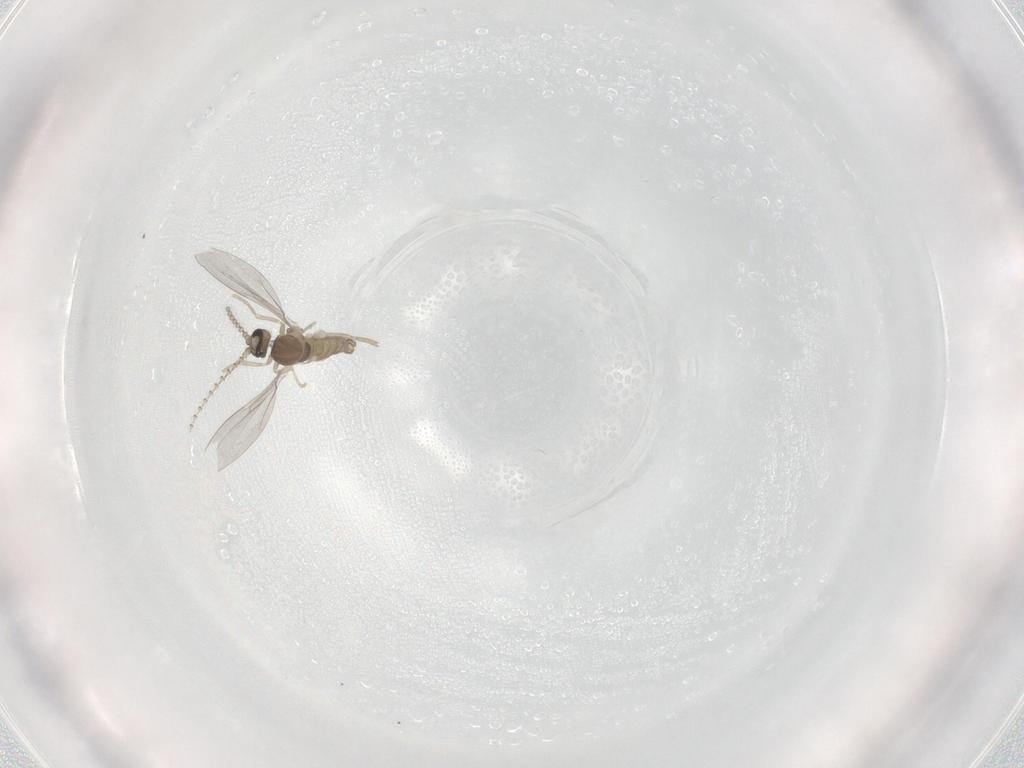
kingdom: Animalia
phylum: Arthropoda
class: Insecta
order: Diptera
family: Cecidomyiidae
